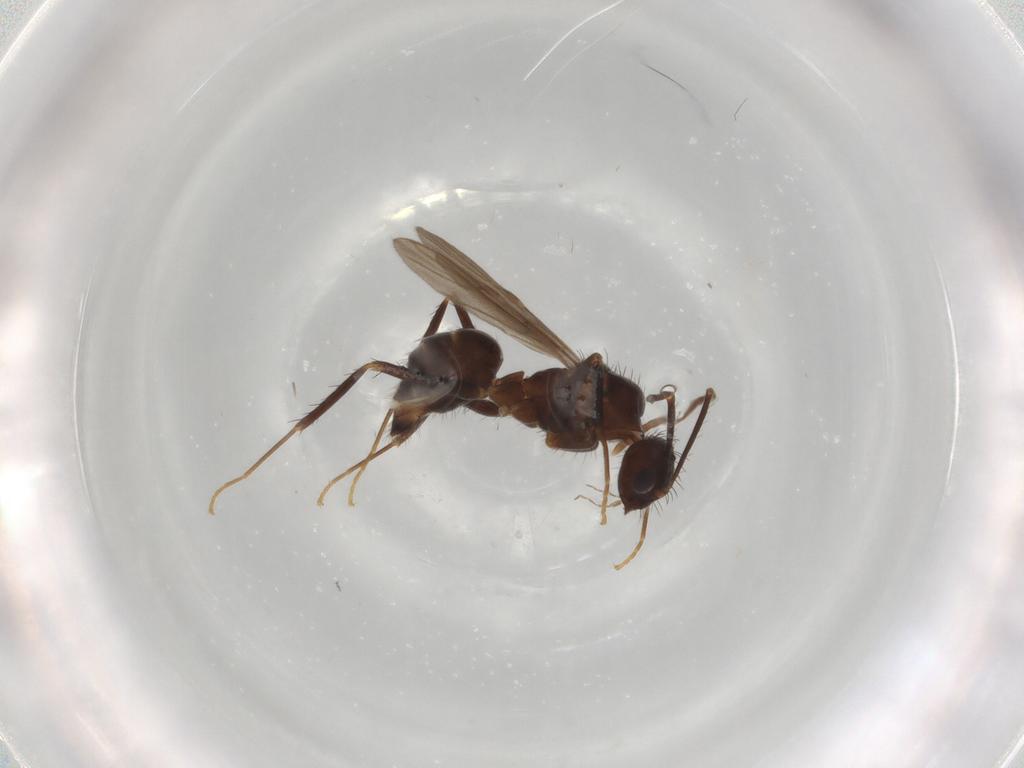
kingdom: Animalia
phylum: Arthropoda
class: Insecta
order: Hymenoptera
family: Formicidae
